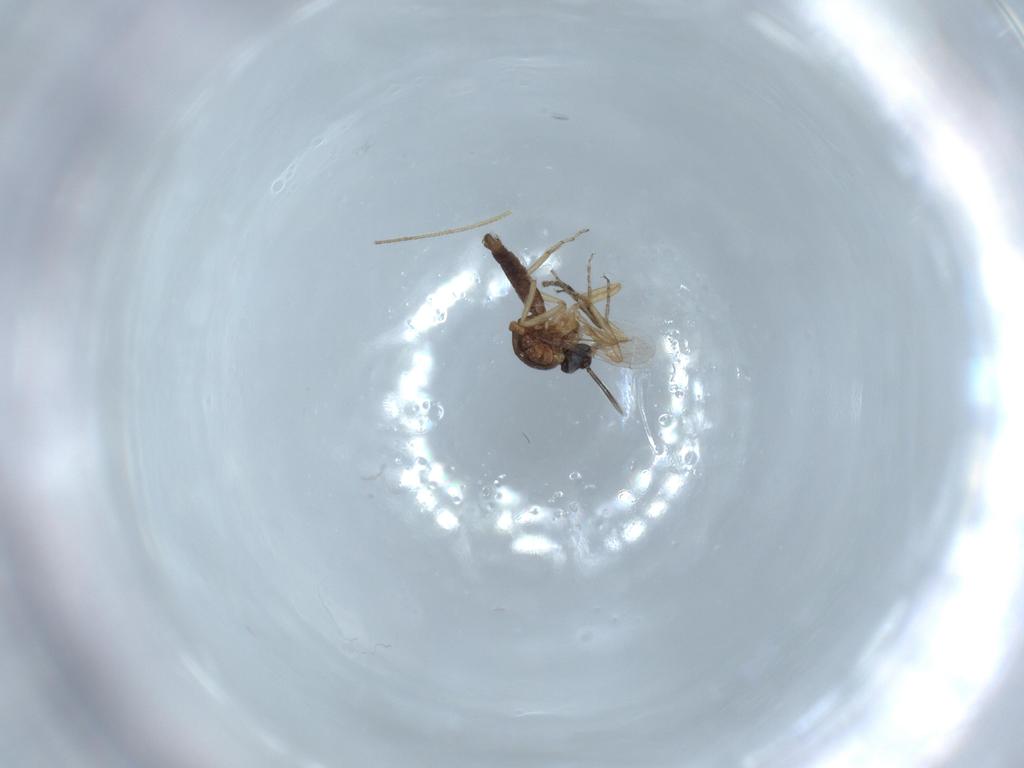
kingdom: Animalia
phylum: Arthropoda
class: Insecta
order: Diptera
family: Ceratopogonidae
